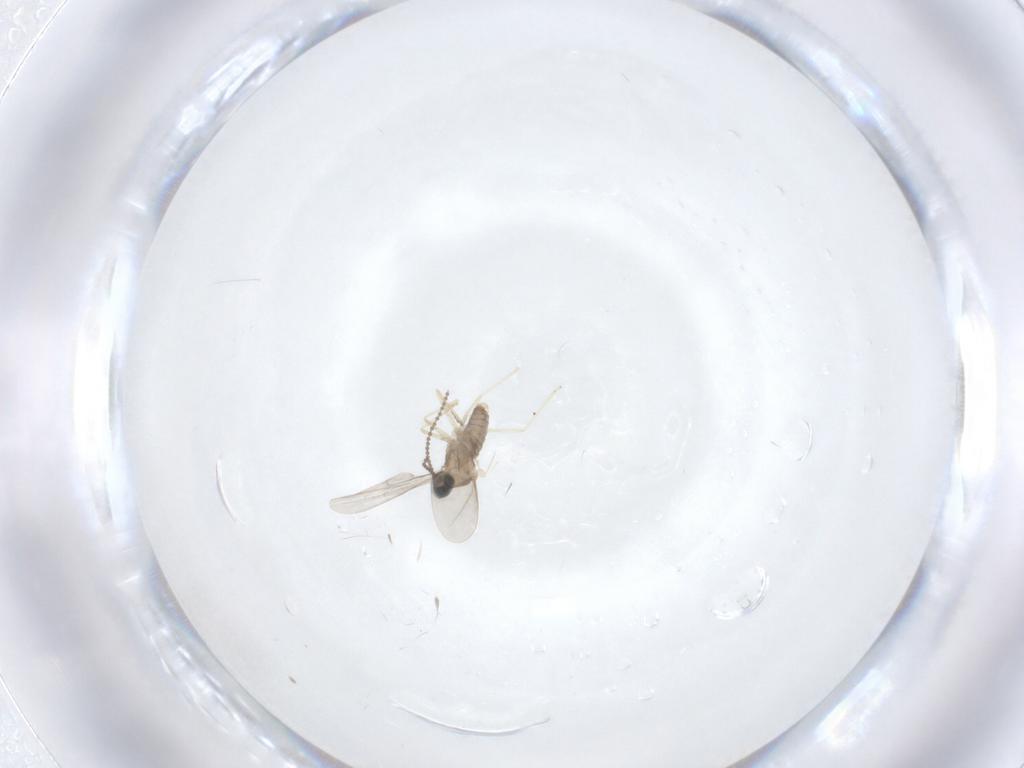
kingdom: Animalia
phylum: Arthropoda
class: Insecta
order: Diptera
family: Cecidomyiidae
